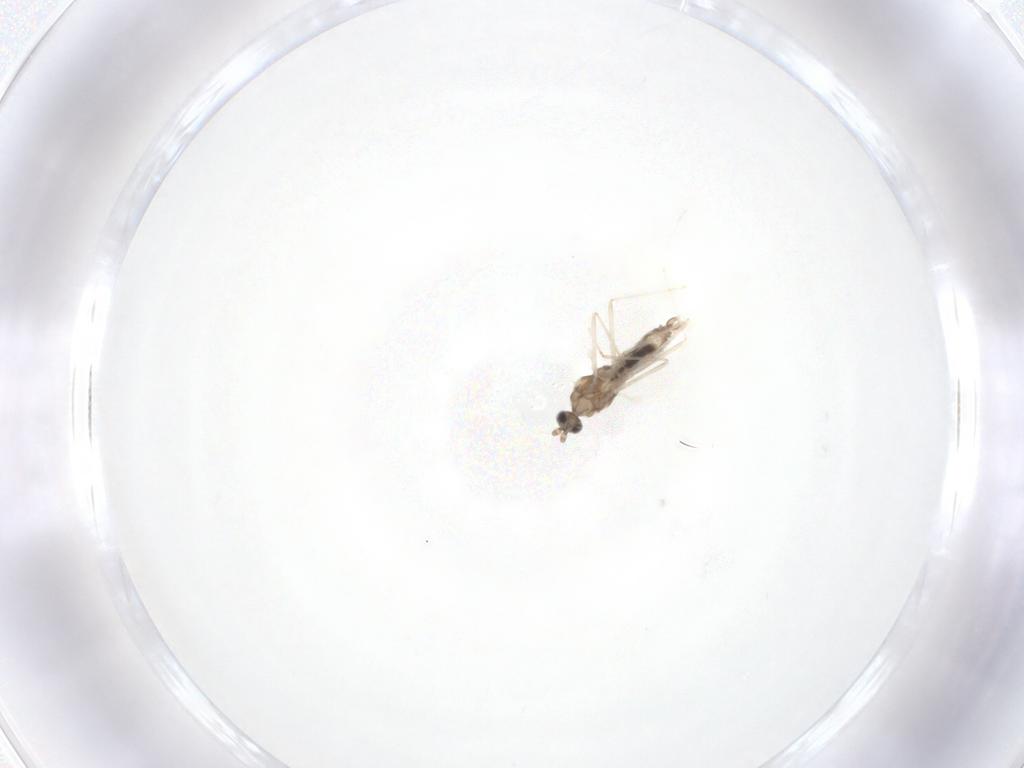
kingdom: Animalia
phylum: Arthropoda
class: Insecta
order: Diptera
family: Cecidomyiidae
